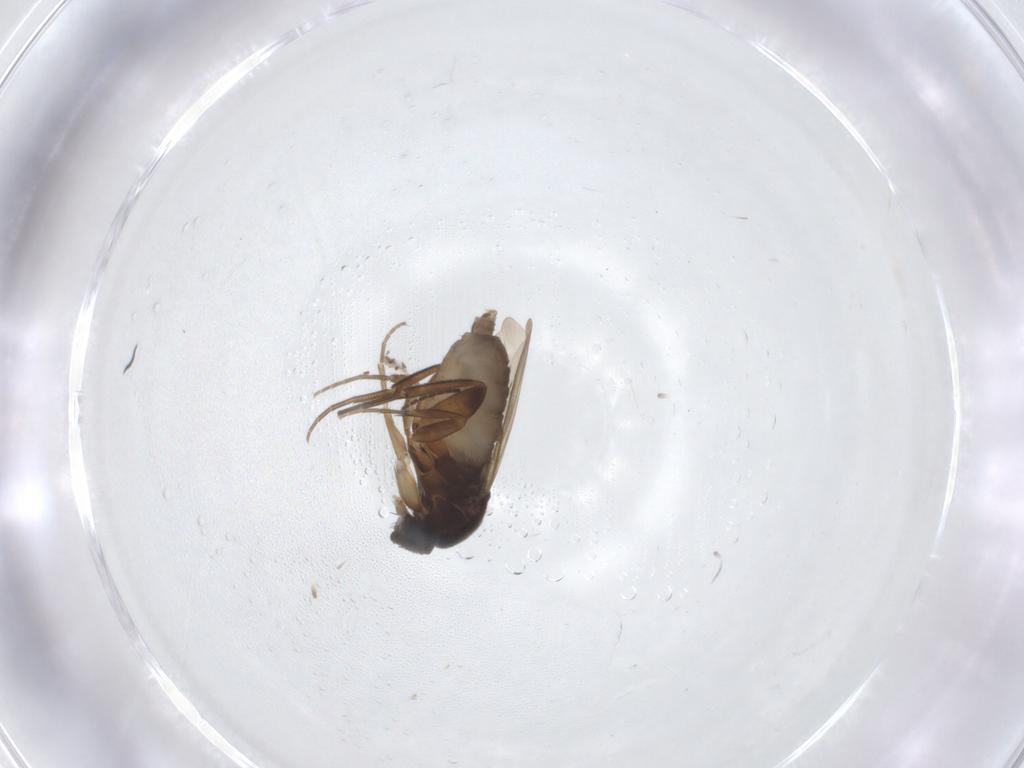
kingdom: Animalia
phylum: Arthropoda
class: Insecta
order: Diptera
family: Phoridae
